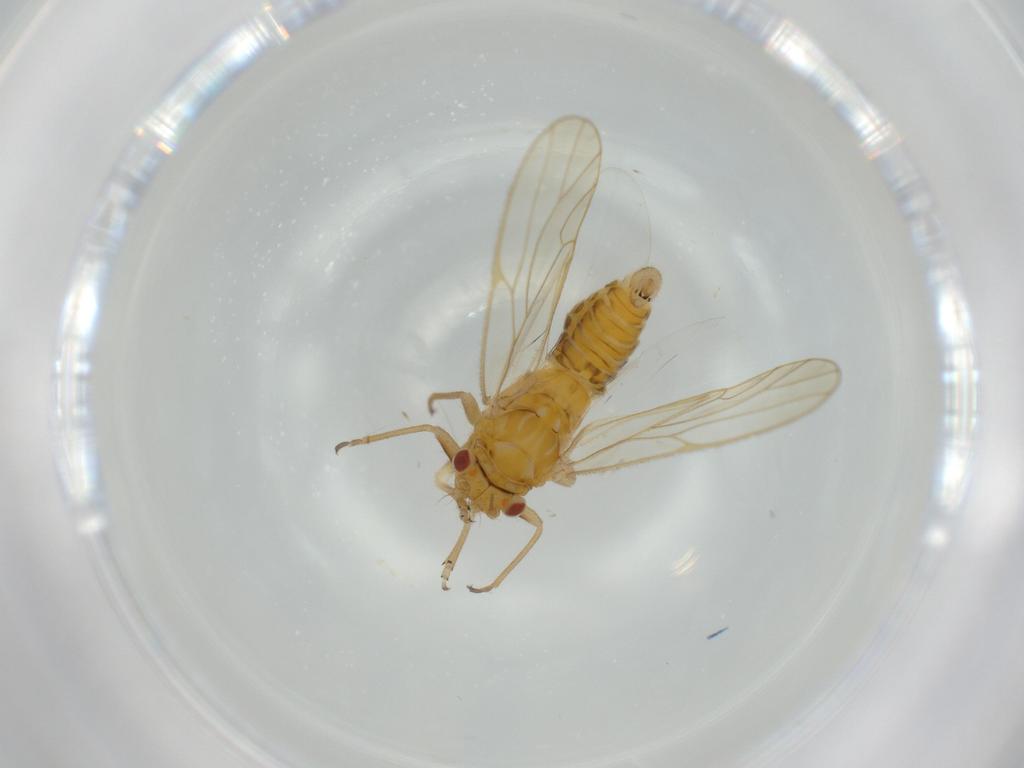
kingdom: Animalia
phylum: Arthropoda
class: Insecta
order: Hemiptera
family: Psyllidae
